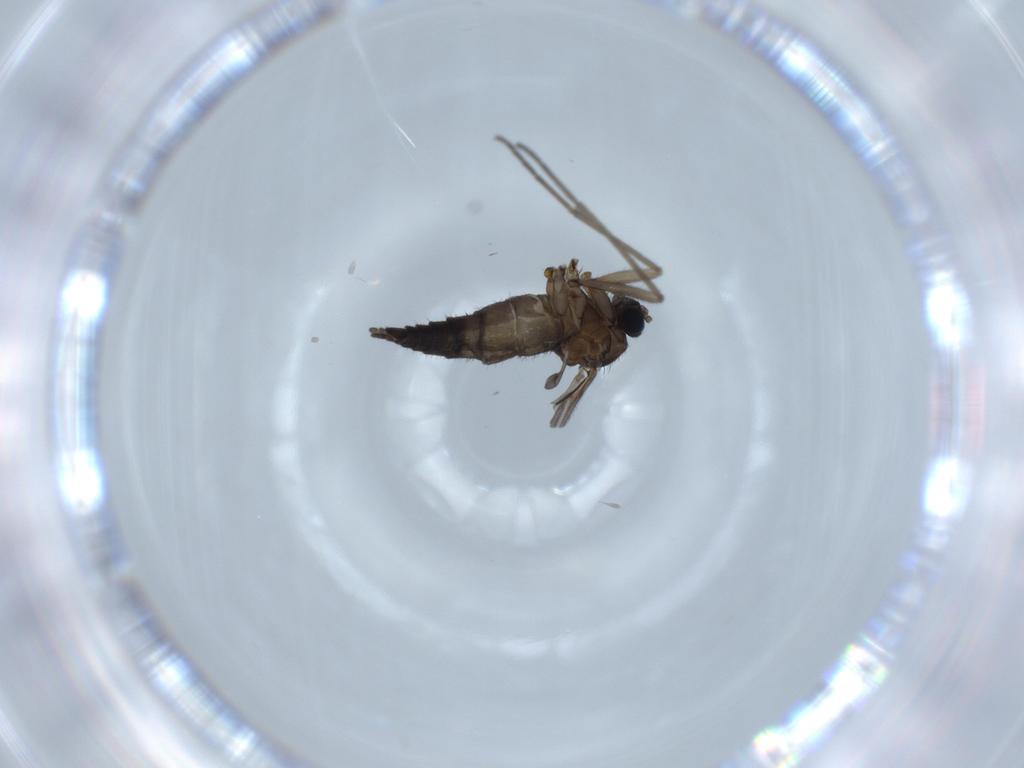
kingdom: Animalia
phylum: Arthropoda
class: Insecta
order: Diptera
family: Sciaridae
